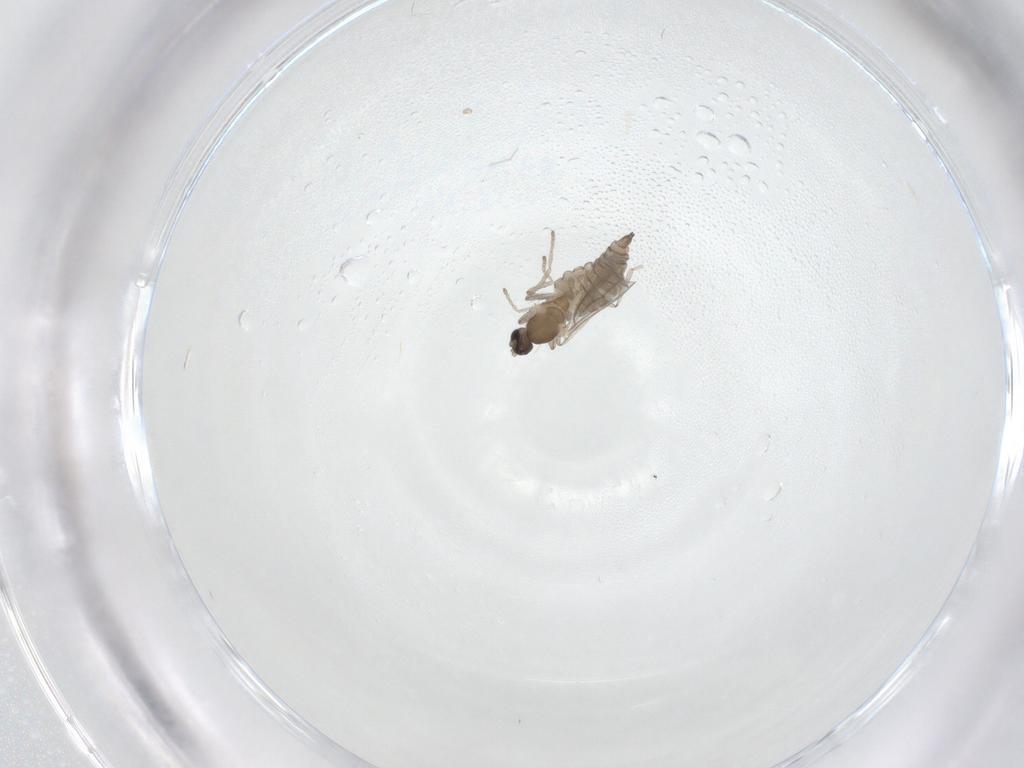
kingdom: Animalia
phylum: Arthropoda
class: Insecta
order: Diptera
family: Cecidomyiidae
